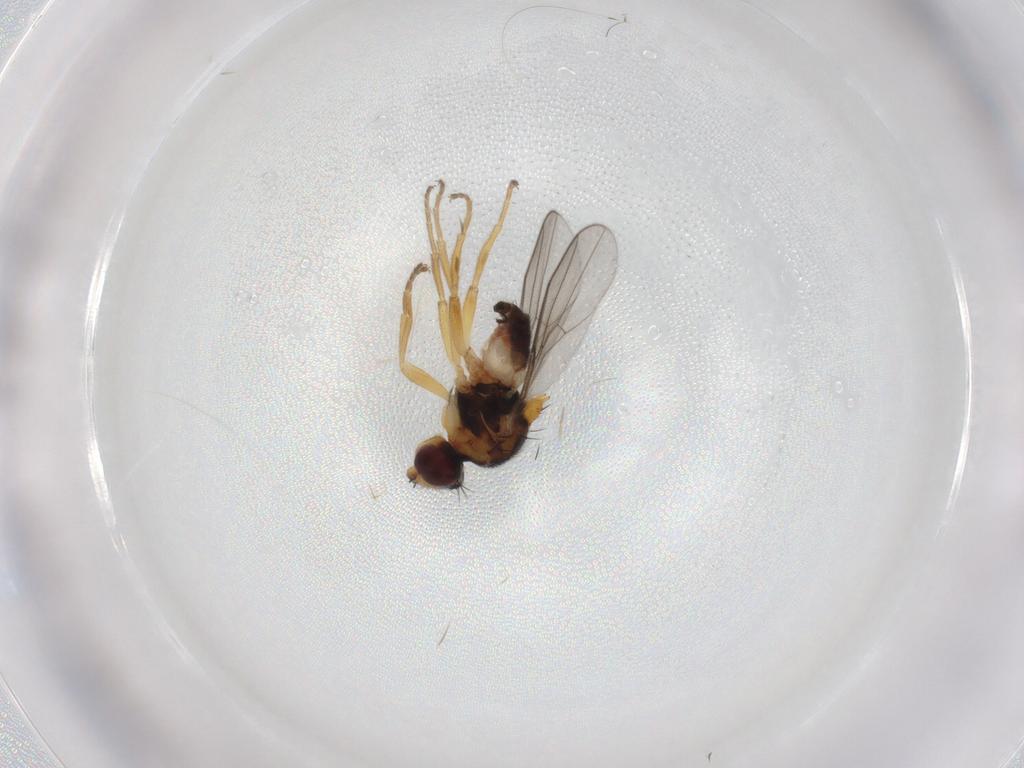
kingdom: Animalia
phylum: Arthropoda
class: Insecta
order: Diptera
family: Chloropidae
